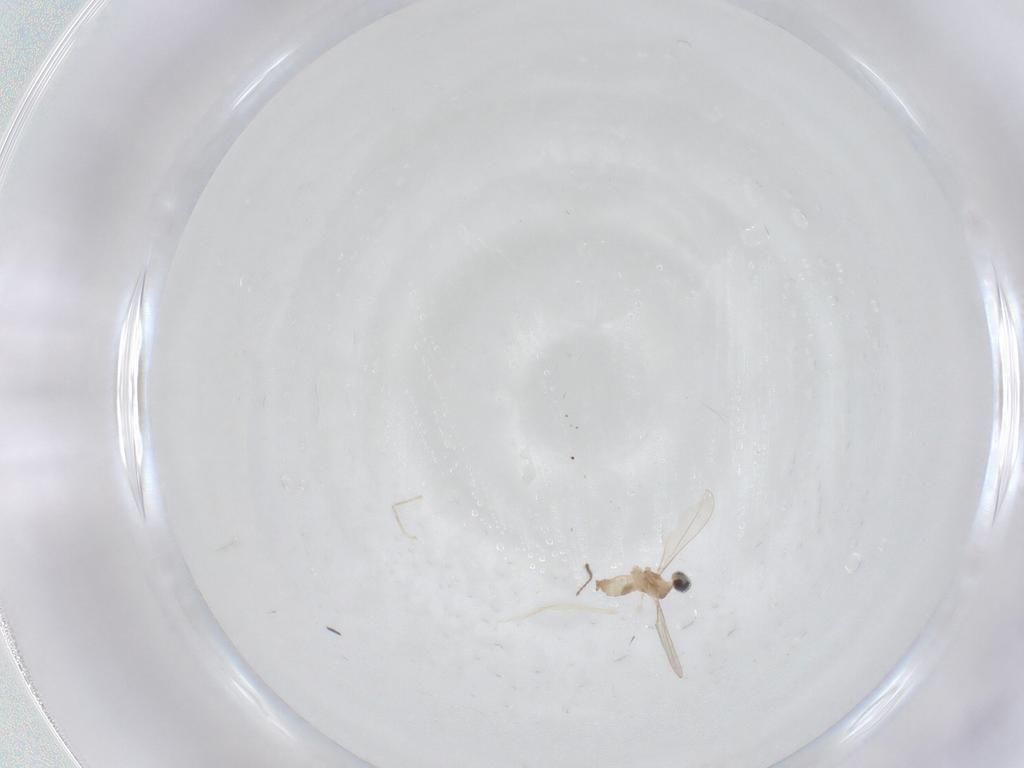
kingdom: Animalia
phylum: Arthropoda
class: Insecta
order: Diptera
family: Cecidomyiidae
